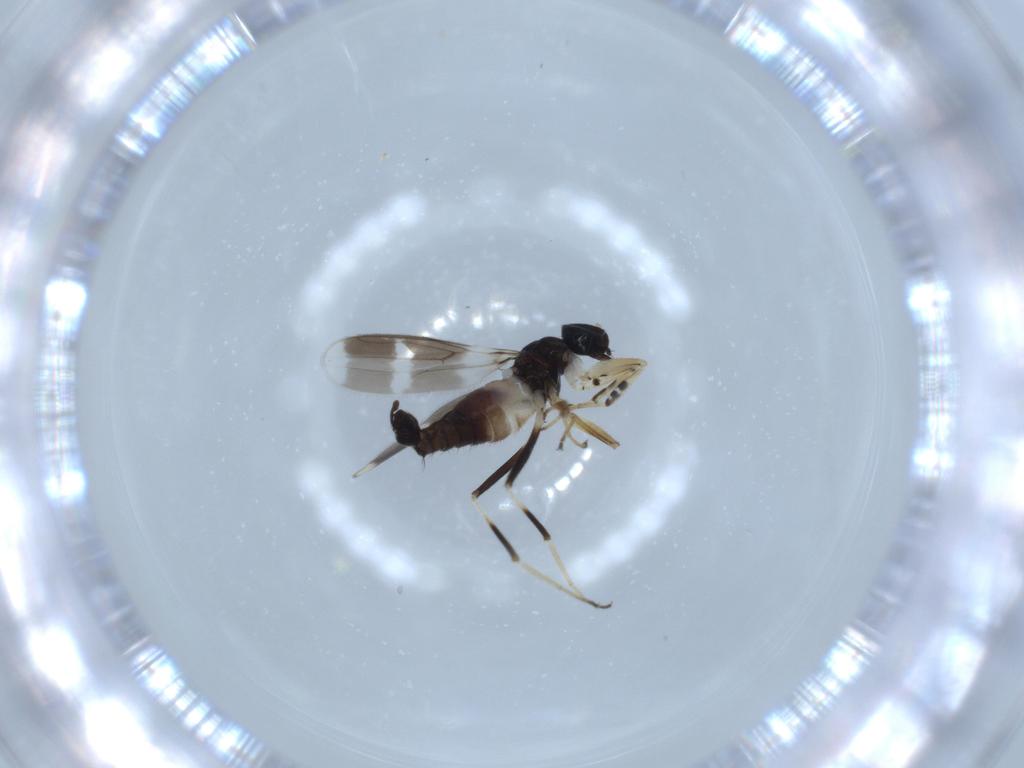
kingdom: Animalia
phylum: Arthropoda
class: Insecta
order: Diptera
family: Hybotidae
